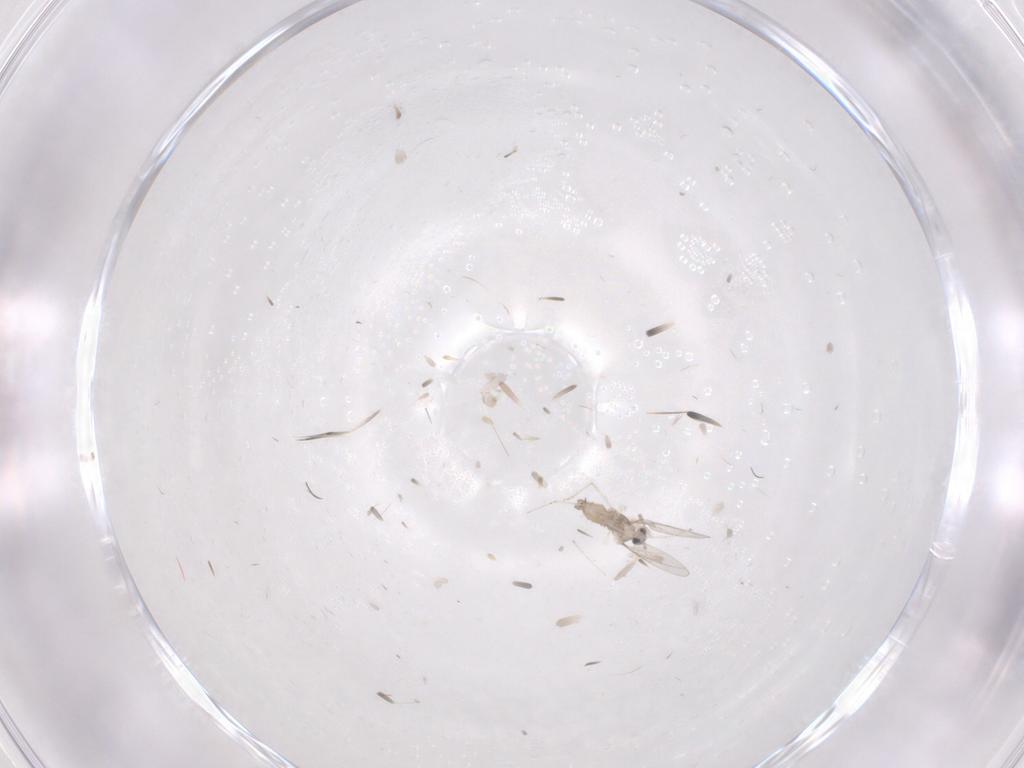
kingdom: Animalia
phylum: Arthropoda
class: Insecta
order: Diptera
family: Cecidomyiidae
